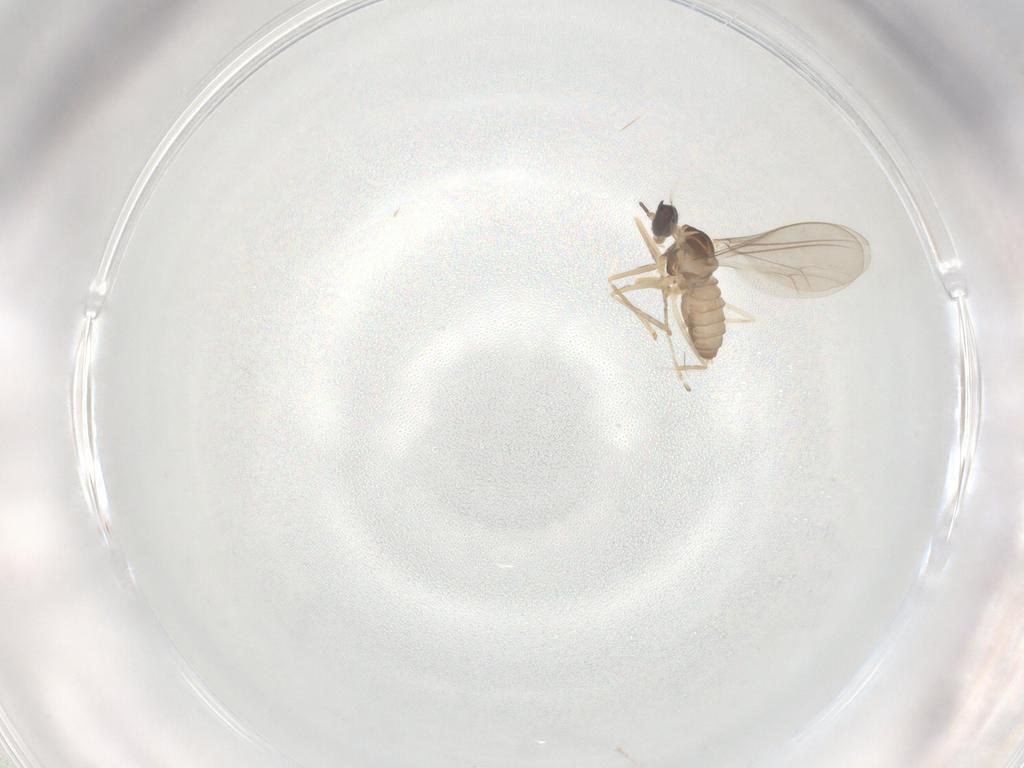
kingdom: Animalia
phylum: Arthropoda
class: Insecta
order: Diptera
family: Cecidomyiidae
